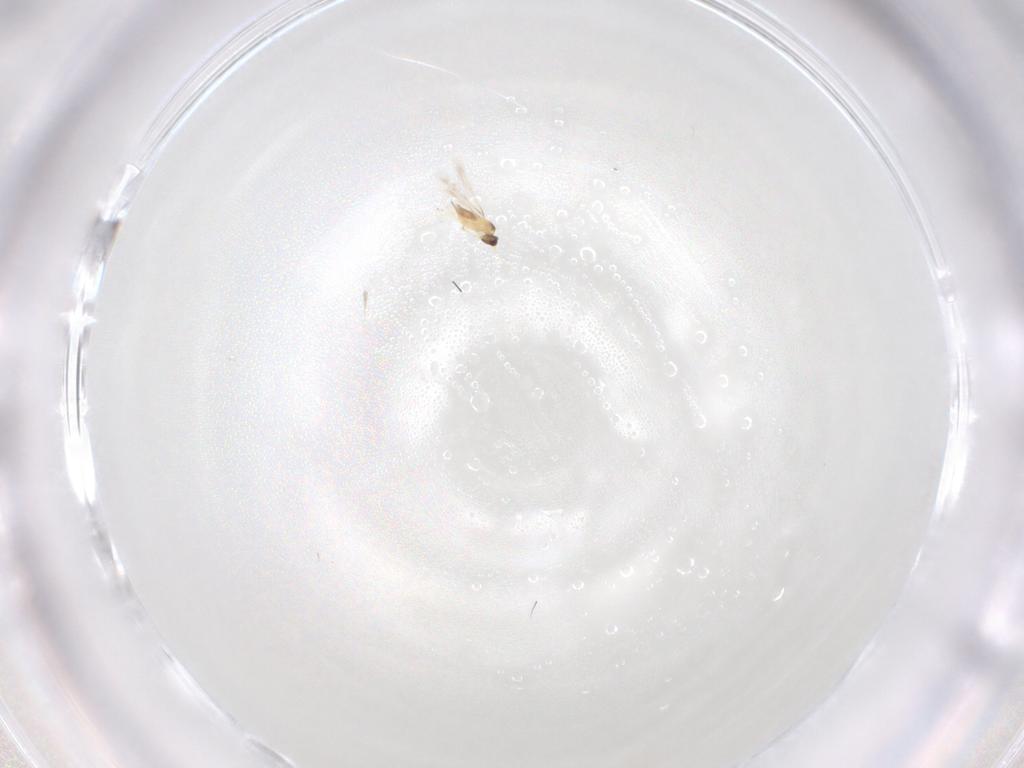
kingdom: Animalia
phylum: Arthropoda
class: Insecta
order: Hymenoptera
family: Mymaridae
